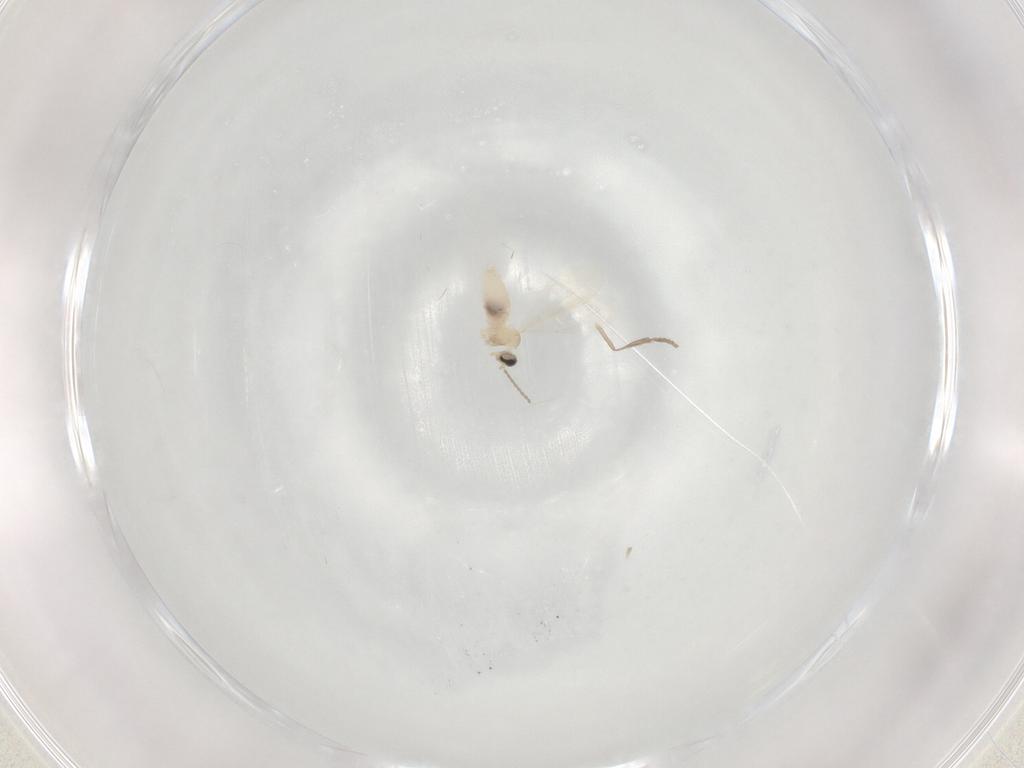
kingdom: Animalia
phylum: Arthropoda
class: Insecta
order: Diptera
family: Cecidomyiidae
